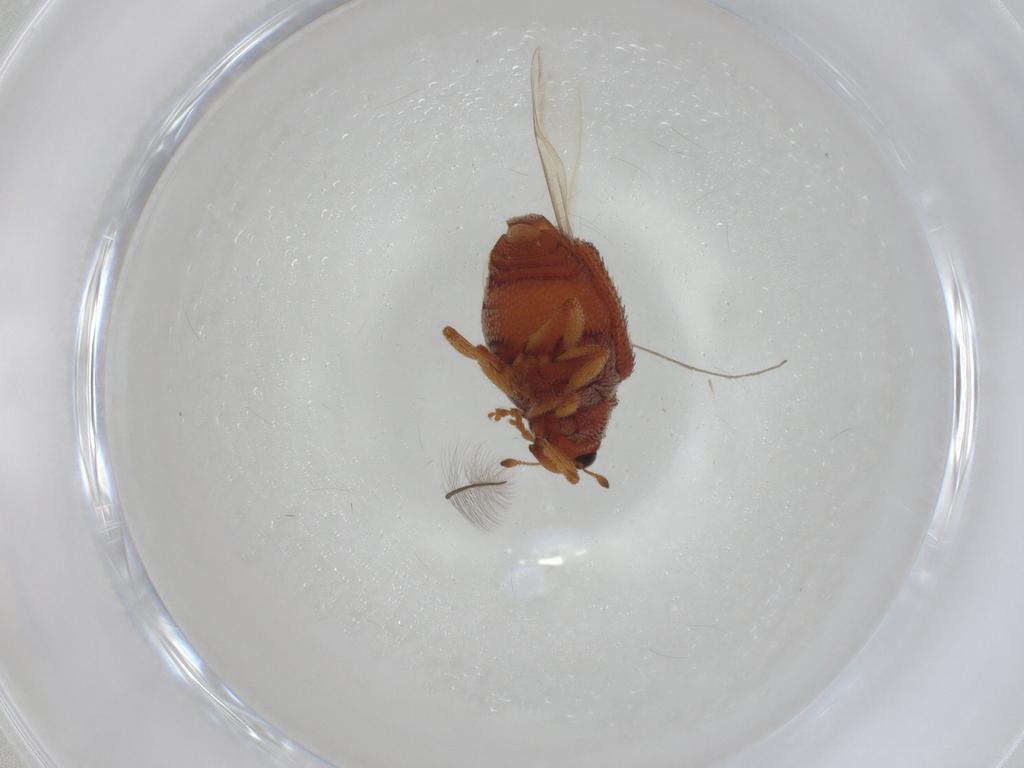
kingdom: Animalia
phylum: Arthropoda
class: Insecta
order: Coleoptera
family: Curculionidae
